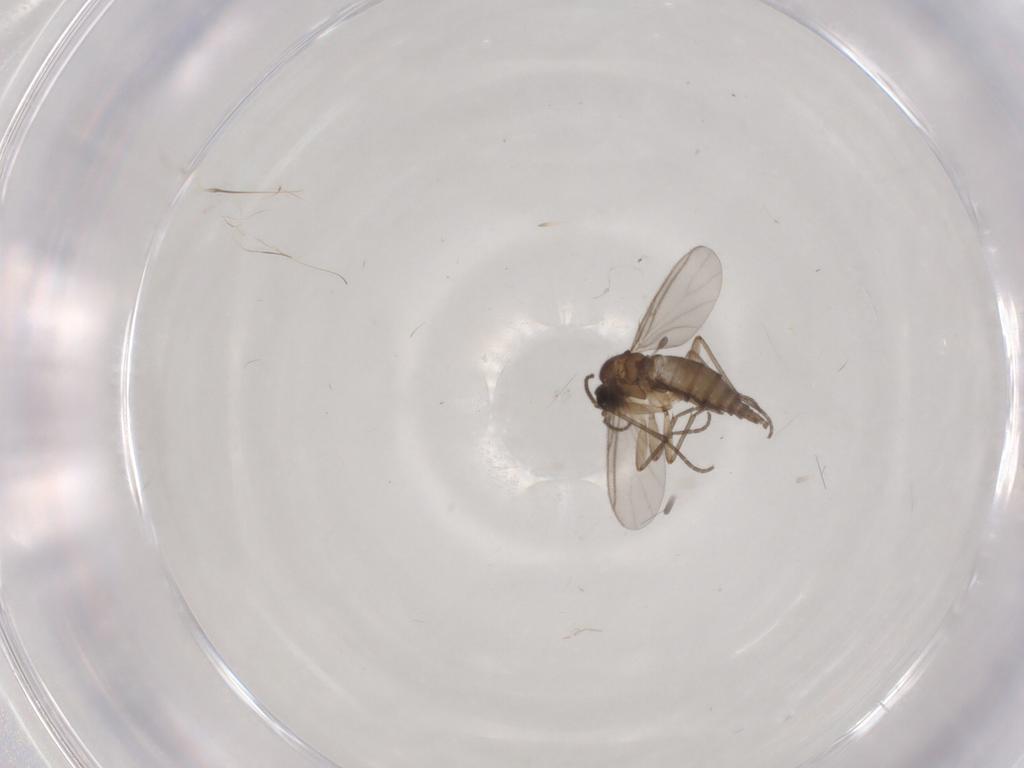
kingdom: Animalia
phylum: Arthropoda
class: Insecta
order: Diptera
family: Sciaridae
